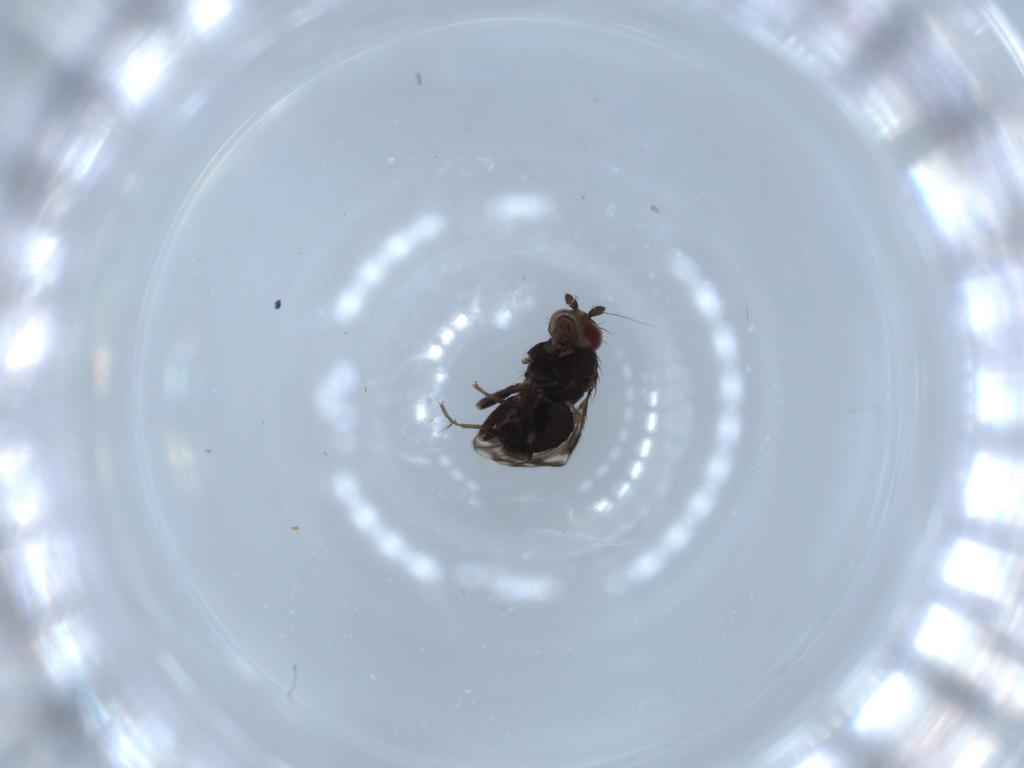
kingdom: Animalia
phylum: Arthropoda
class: Insecta
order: Diptera
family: Sphaeroceridae
